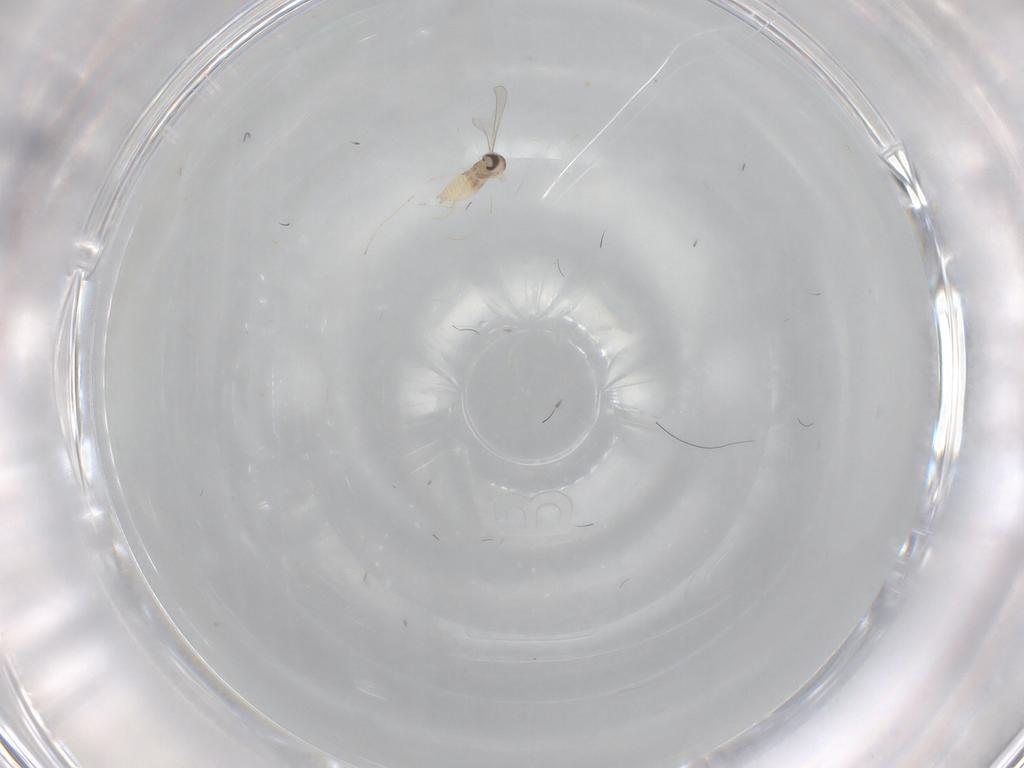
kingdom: Animalia
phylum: Arthropoda
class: Insecta
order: Diptera
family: Cecidomyiidae
